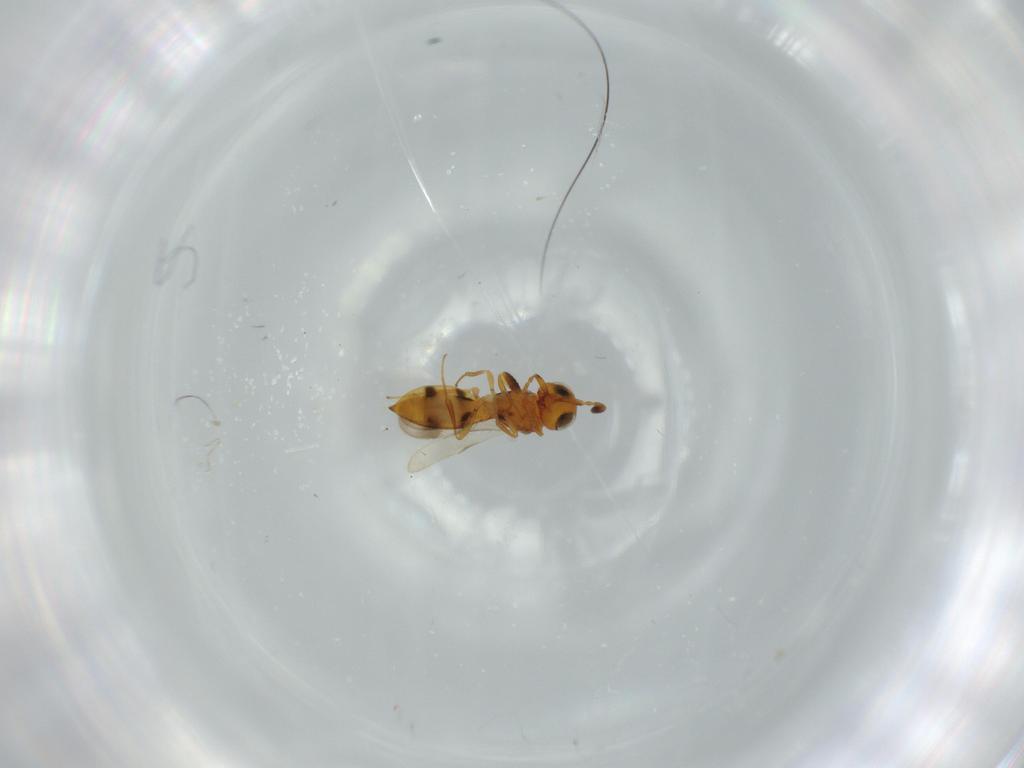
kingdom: Animalia
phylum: Arthropoda
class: Insecta
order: Hymenoptera
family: Scelionidae
